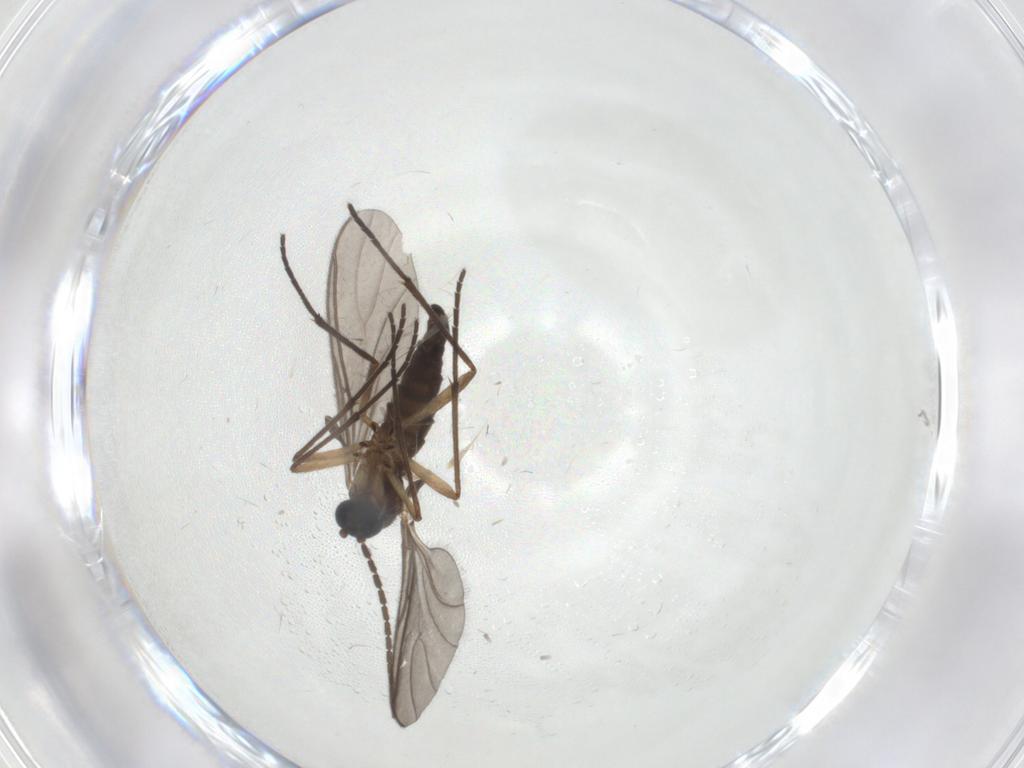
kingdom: Animalia
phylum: Arthropoda
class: Insecta
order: Diptera
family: Sciaridae
